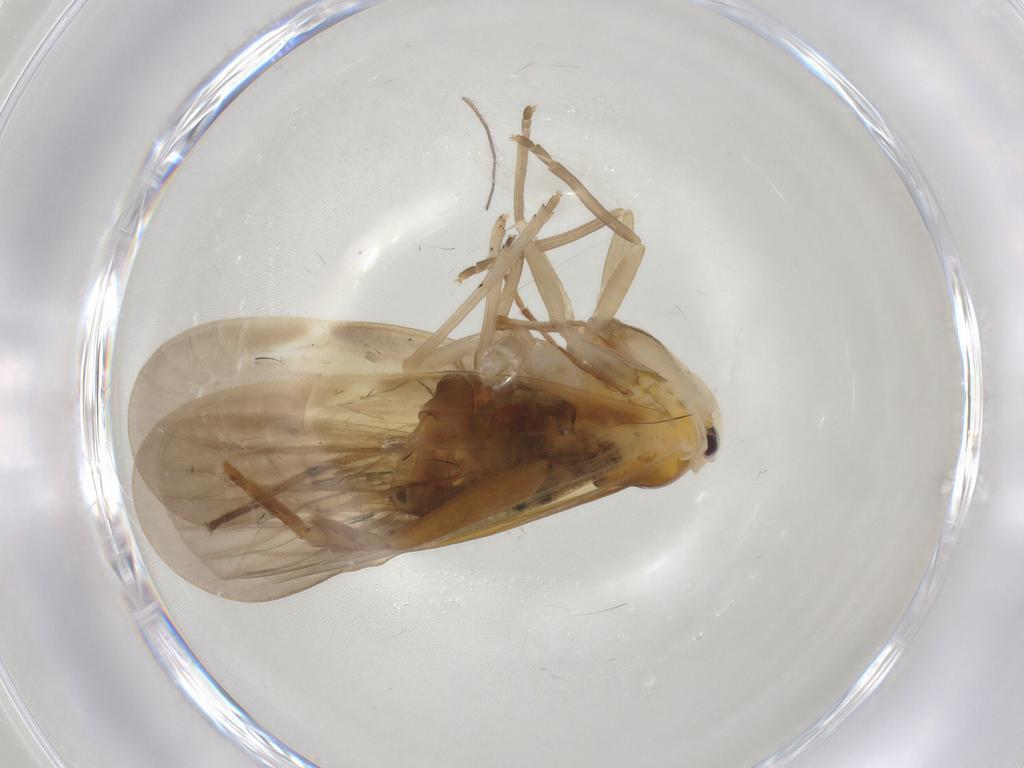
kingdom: Animalia
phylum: Arthropoda
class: Insecta
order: Hemiptera
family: Derbidae
